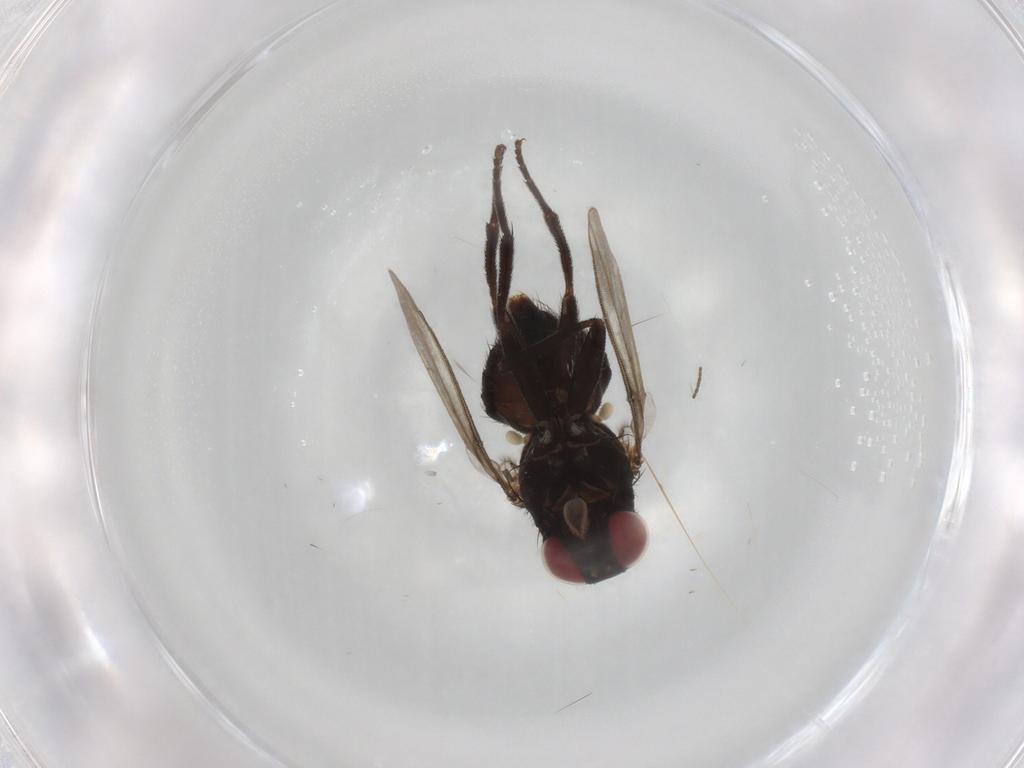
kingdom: Animalia
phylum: Arthropoda
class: Insecta
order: Diptera
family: Agromyzidae
